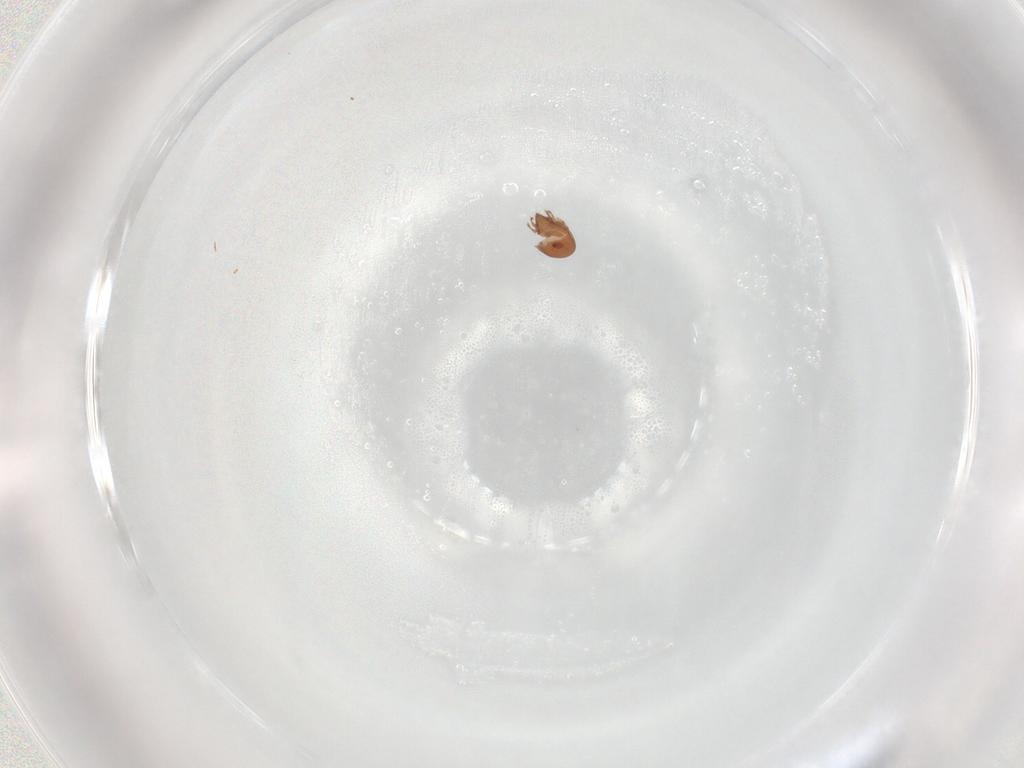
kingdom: Animalia
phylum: Arthropoda
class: Arachnida
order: Sarcoptiformes
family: Scheloribatidae
